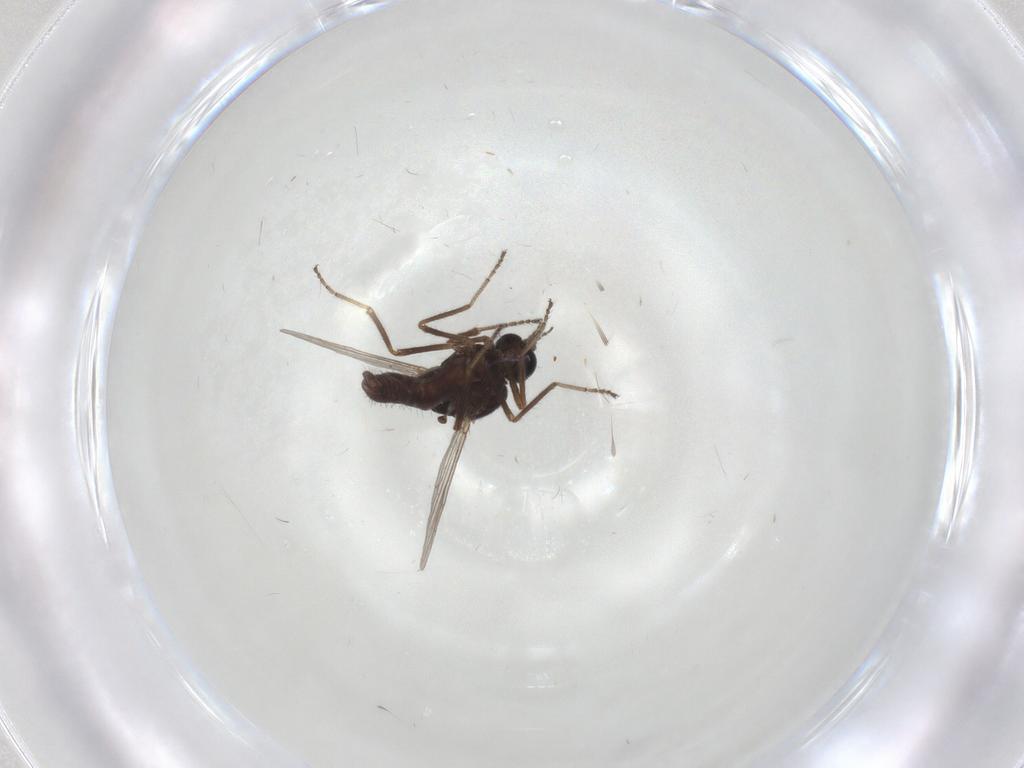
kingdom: Animalia
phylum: Arthropoda
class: Insecta
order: Diptera
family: Ceratopogonidae
